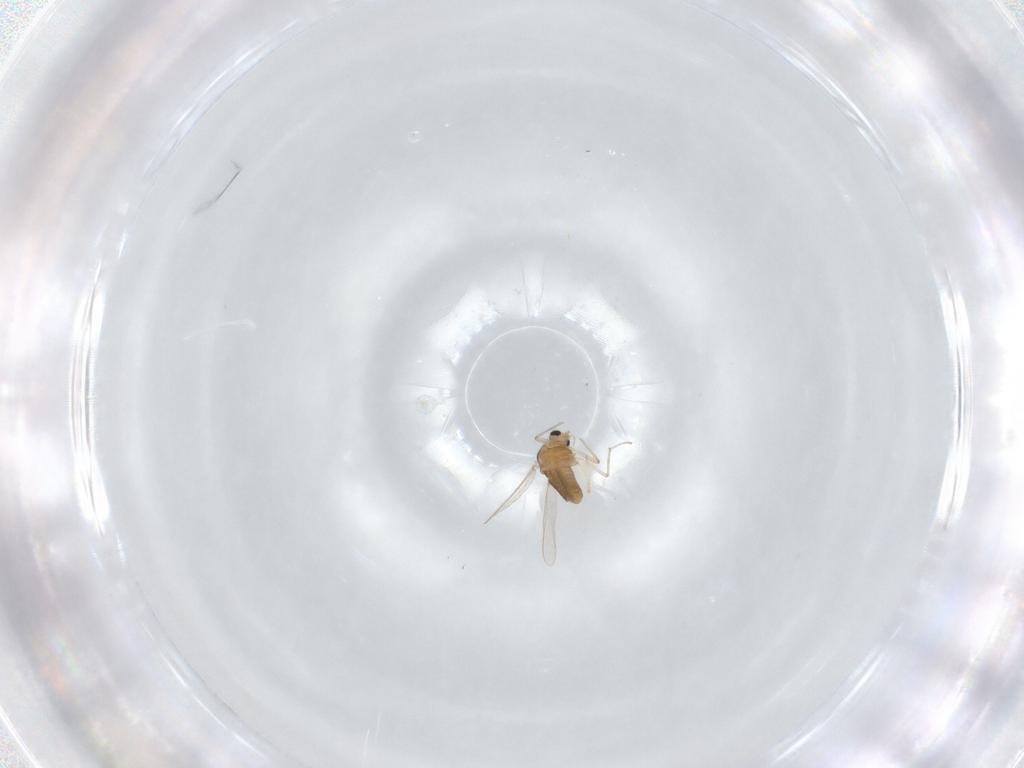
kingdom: Animalia
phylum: Arthropoda
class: Insecta
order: Diptera
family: Chironomidae
